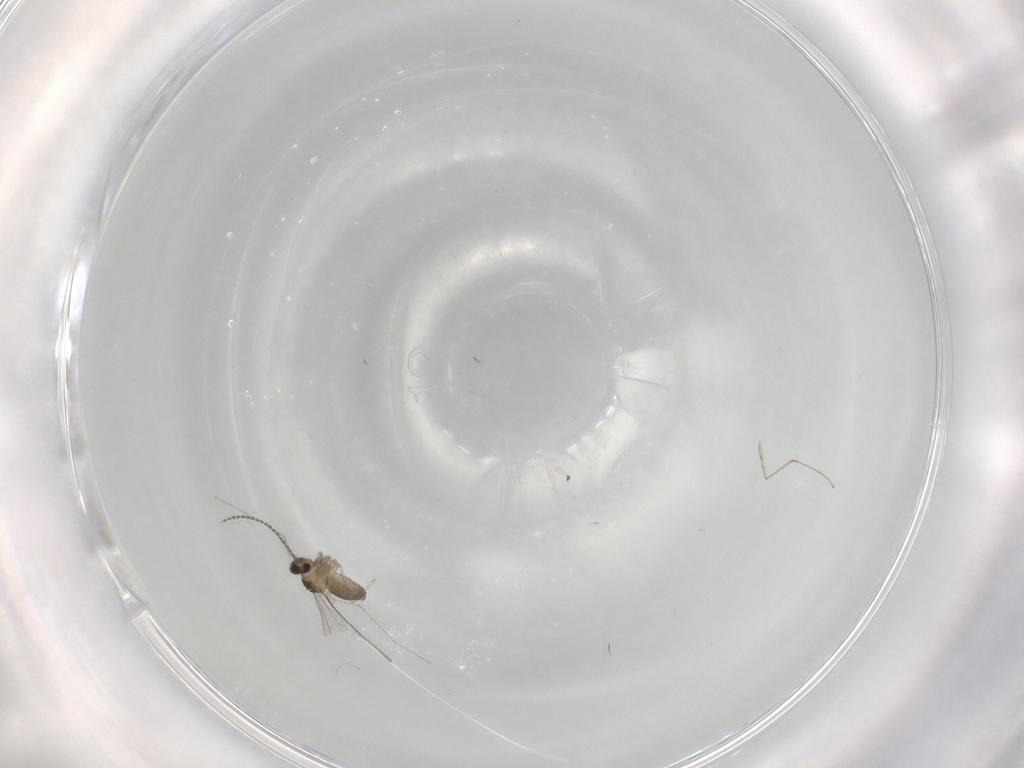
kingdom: Animalia
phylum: Arthropoda
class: Insecta
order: Diptera
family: Cecidomyiidae
